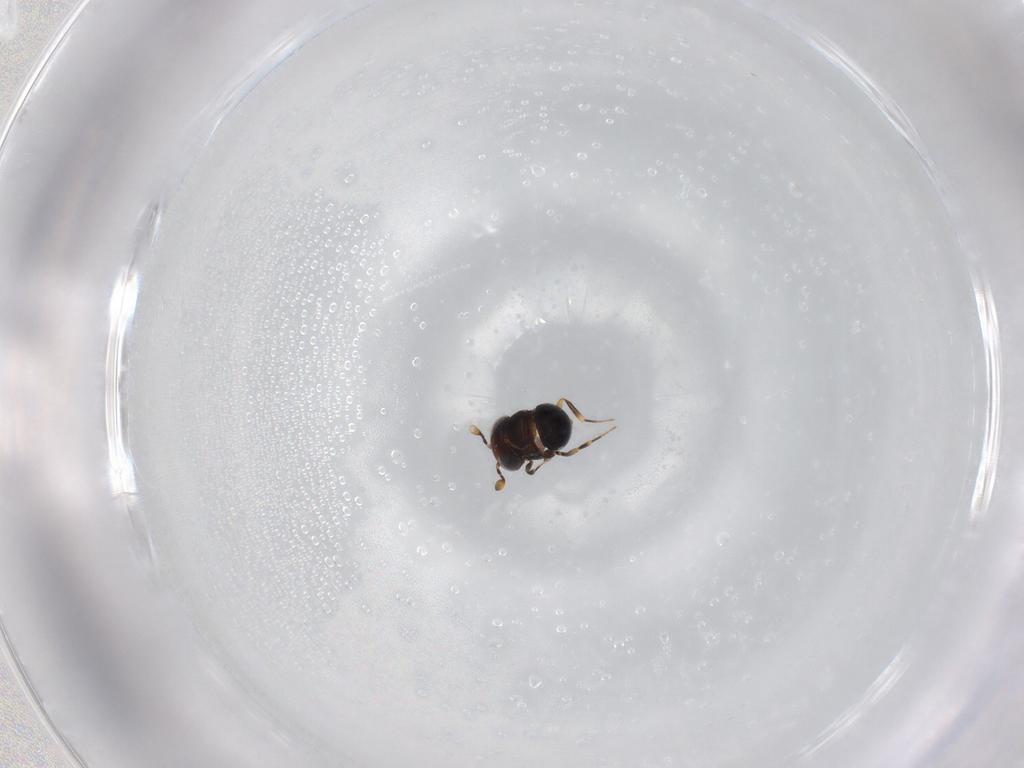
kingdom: Animalia
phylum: Arthropoda
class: Insecta
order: Hymenoptera
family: Scelionidae
